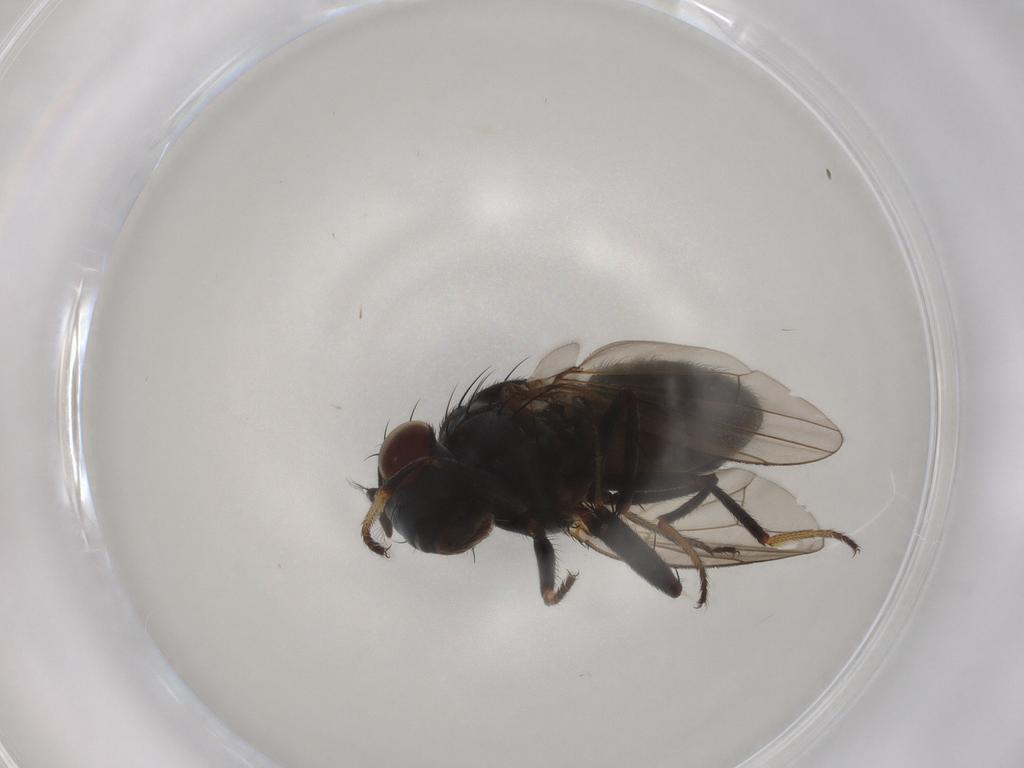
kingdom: Animalia
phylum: Arthropoda
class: Insecta
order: Diptera
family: Ephydridae
